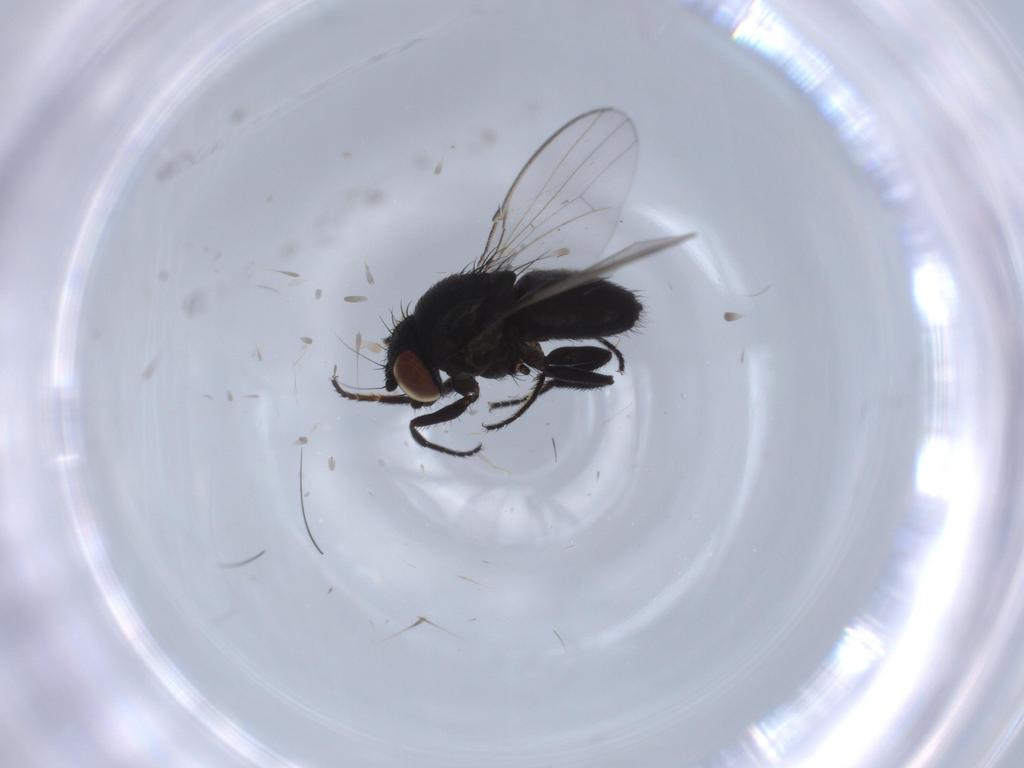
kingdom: Animalia
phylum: Arthropoda
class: Insecta
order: Diptera
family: Milichiidae
